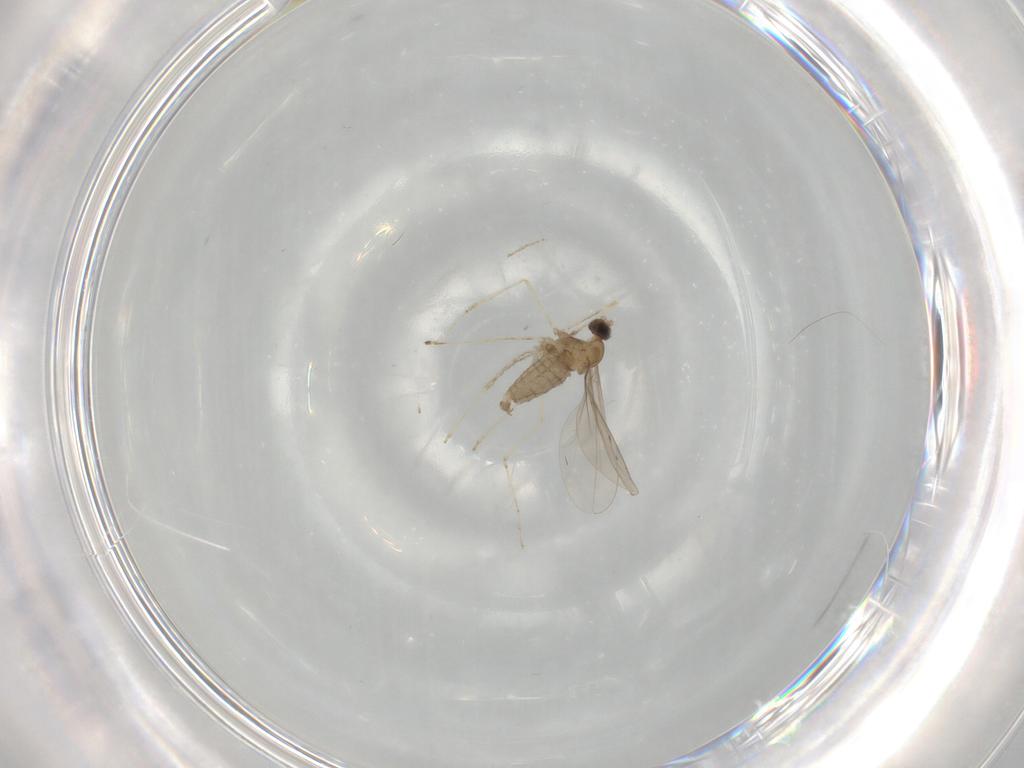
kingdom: Animalia
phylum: Arthropoda
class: Insecta
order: Diptera
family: Cecidomyiidae
